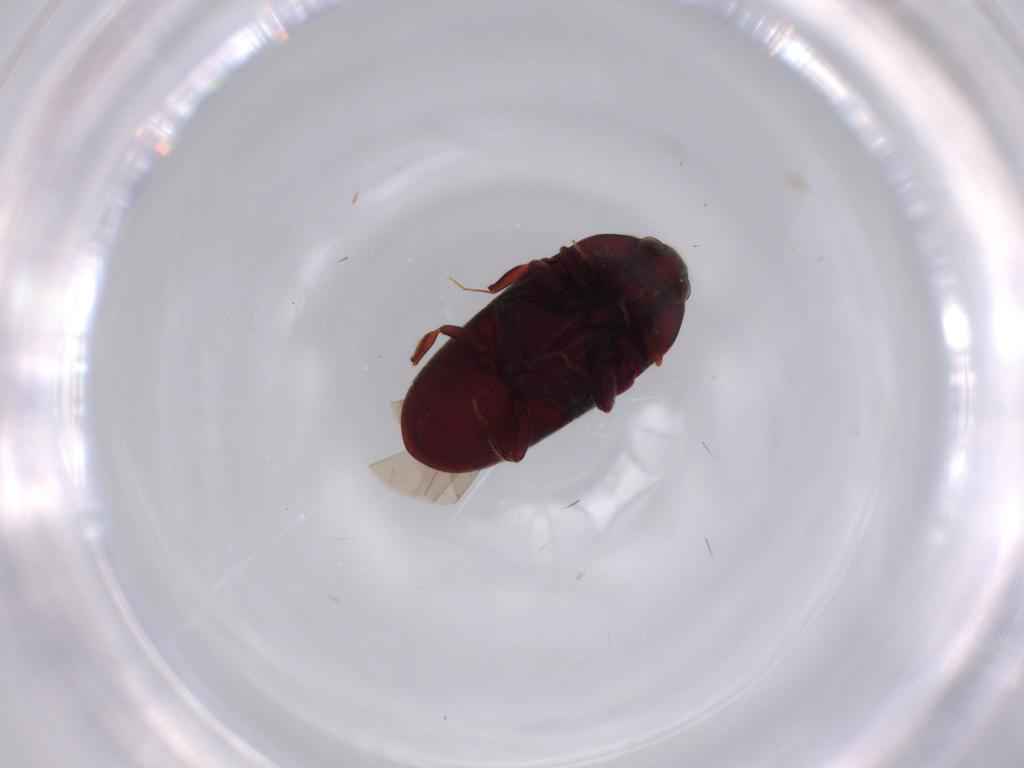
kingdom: Animalia
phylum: Arthropoda
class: Insecta
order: Coleoptera
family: Throscidae
